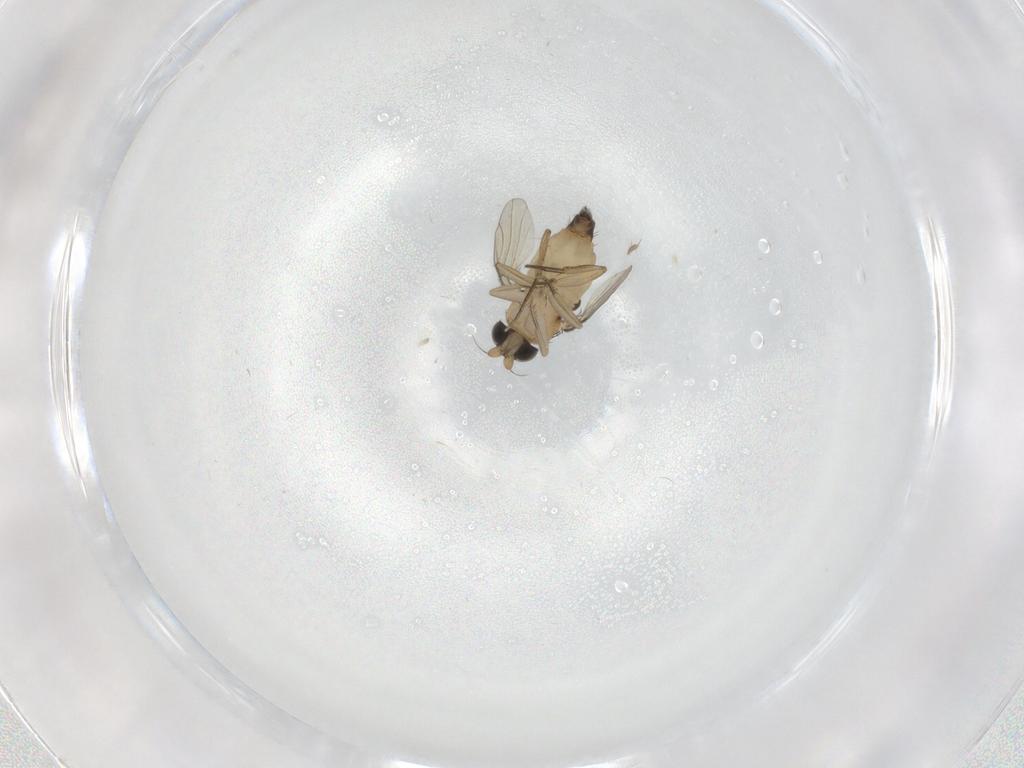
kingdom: Animalia
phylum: Arthropoda
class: Insecta
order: Diptera
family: Phoridae
